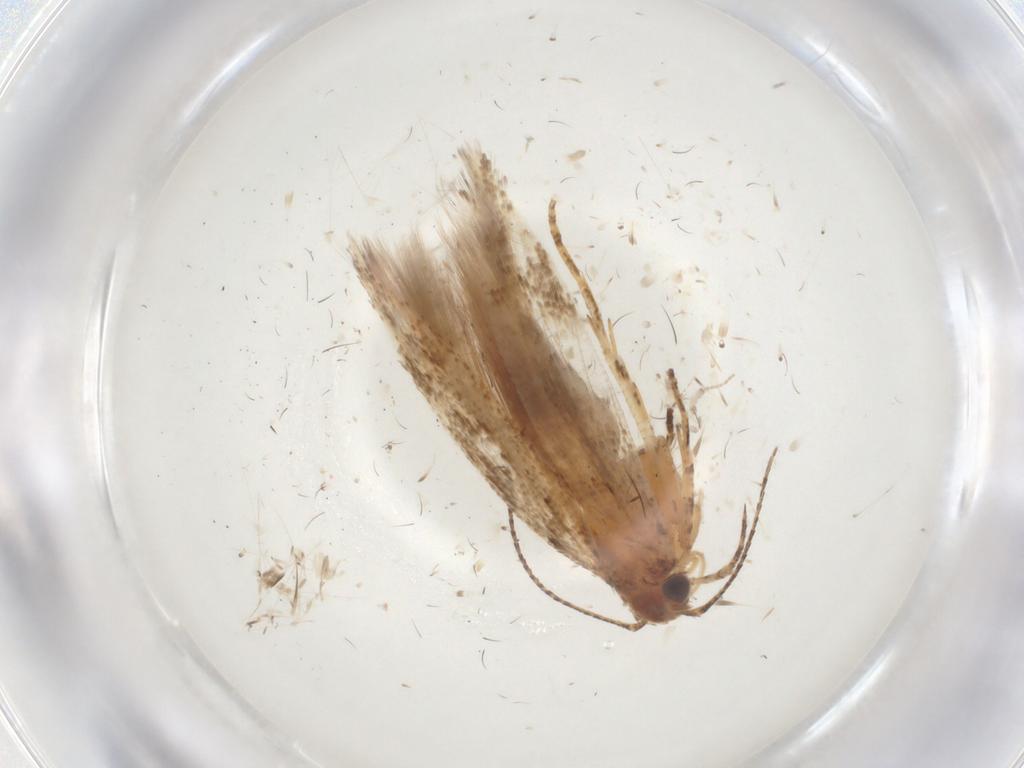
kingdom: Animalia
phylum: Arthropoda
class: Insecta
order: Lepidoptera
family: Gelechiidae
